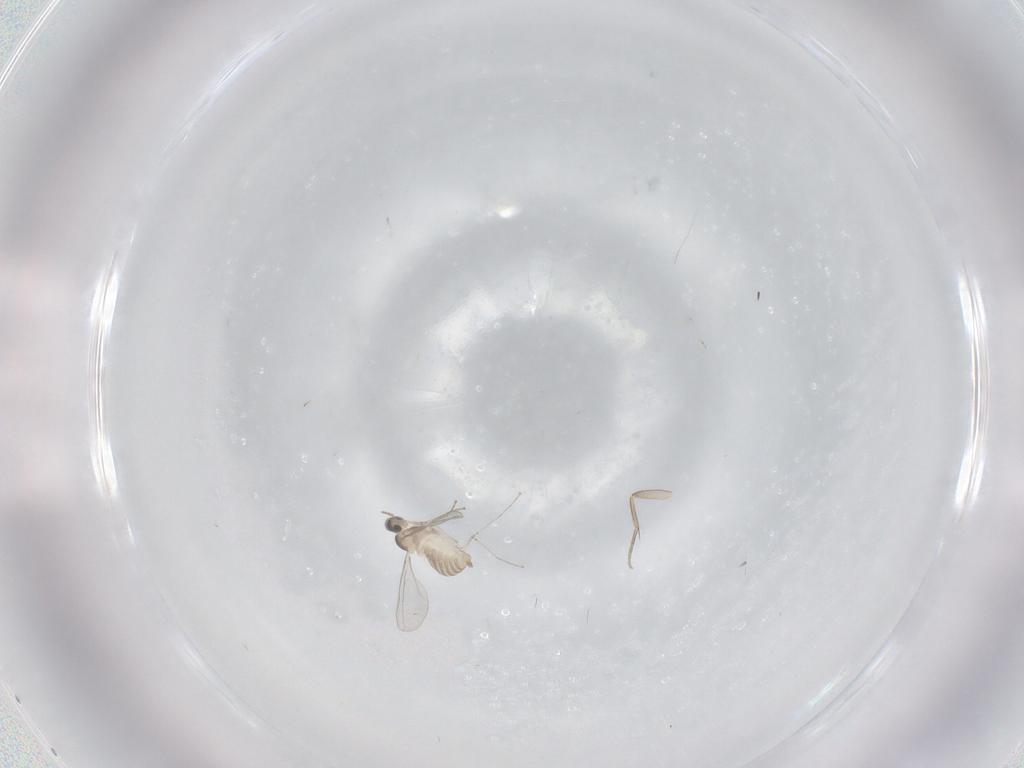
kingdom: Animalia
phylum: Arthropoda
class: Insecta
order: Diptera
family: Cecidomyiidae
